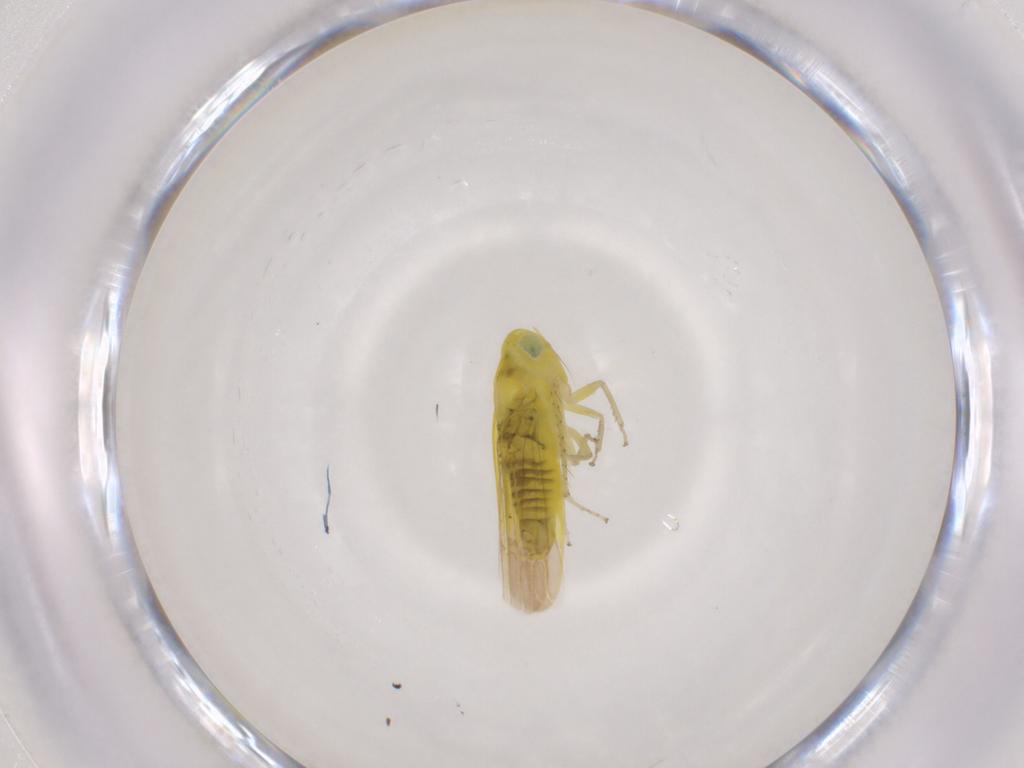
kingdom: Animalia
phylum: Arthropoda
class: Insecta
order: Hemiptera
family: Cicadellidae
